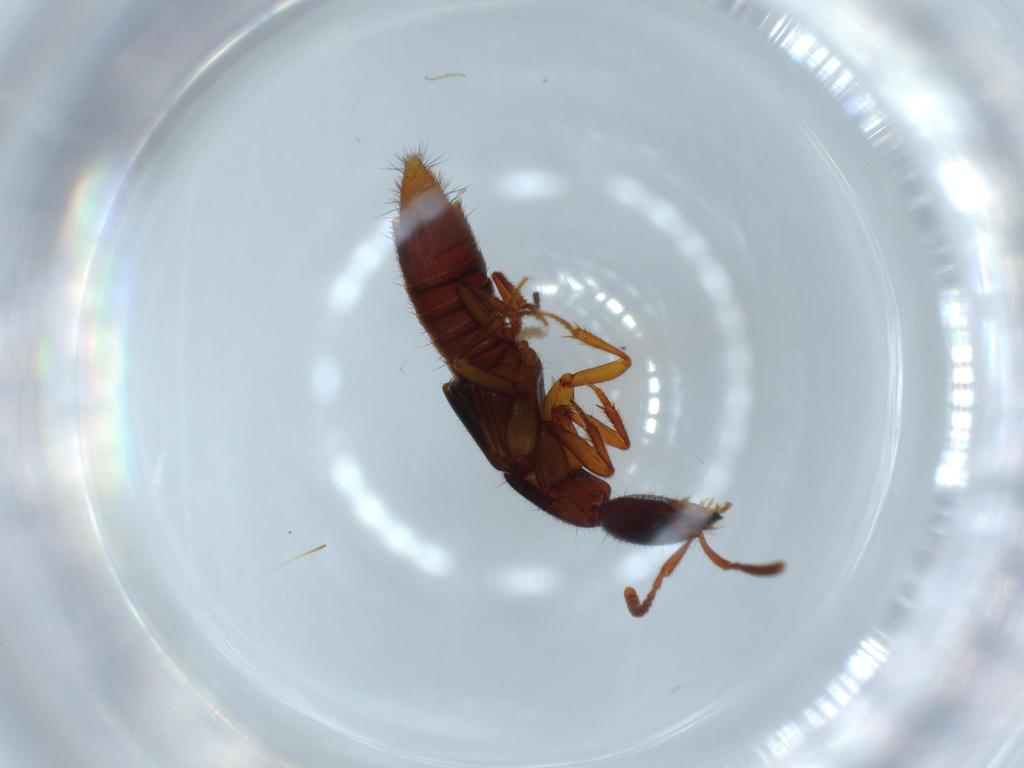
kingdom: Animalia
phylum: Arthropoda
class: Insecta
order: Coleoptera
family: Staphylinidae
